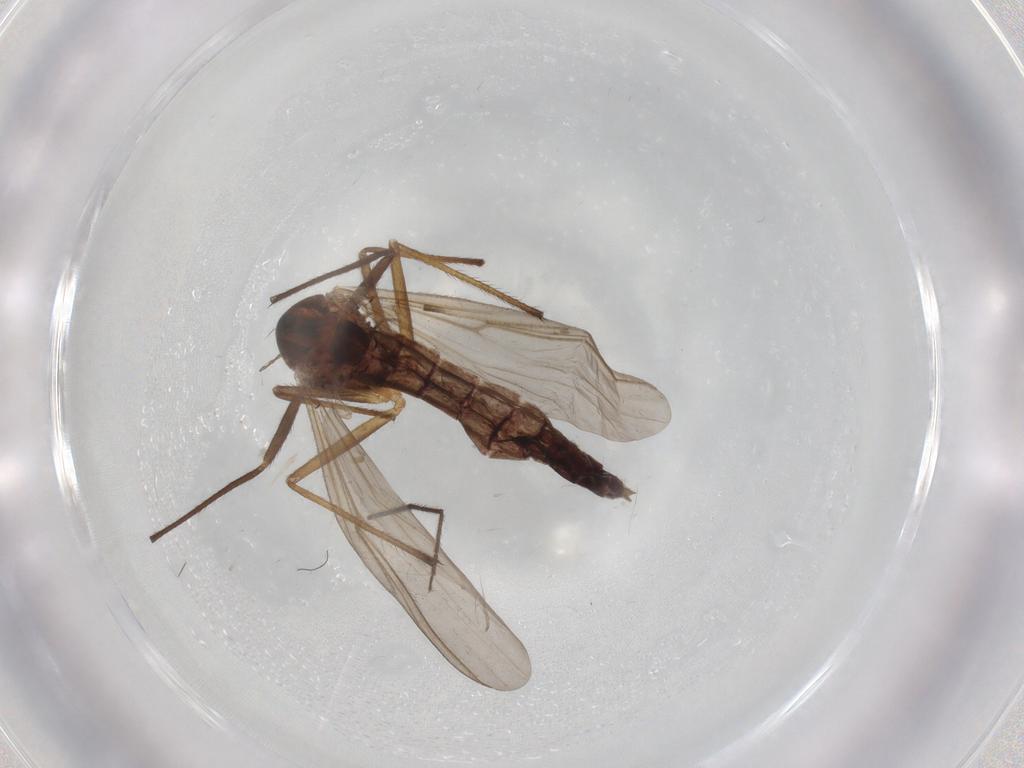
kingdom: Animalia
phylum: Arthropoda
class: Insecta
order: Diptera
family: Chironomidae
